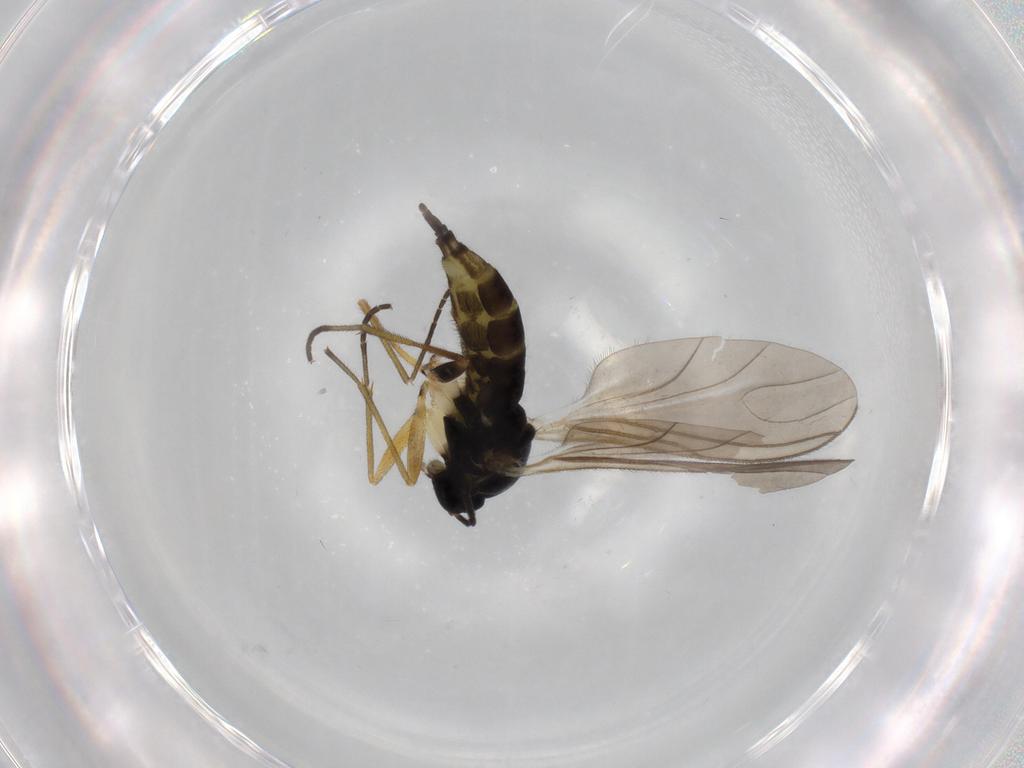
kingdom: Animalia
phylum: Arthropoda
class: Insecta
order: Diptera
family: Sciaridae
